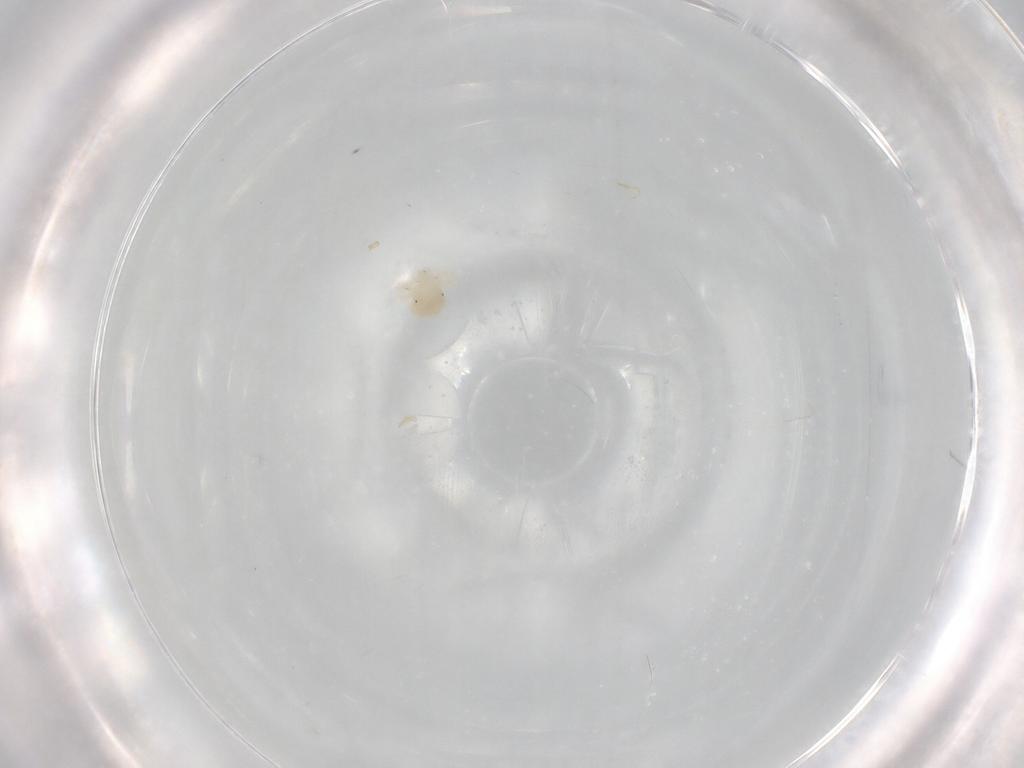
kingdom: Animalia
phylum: Arthropoda
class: Arachnida
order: Trombidiformes
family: Anystidae
